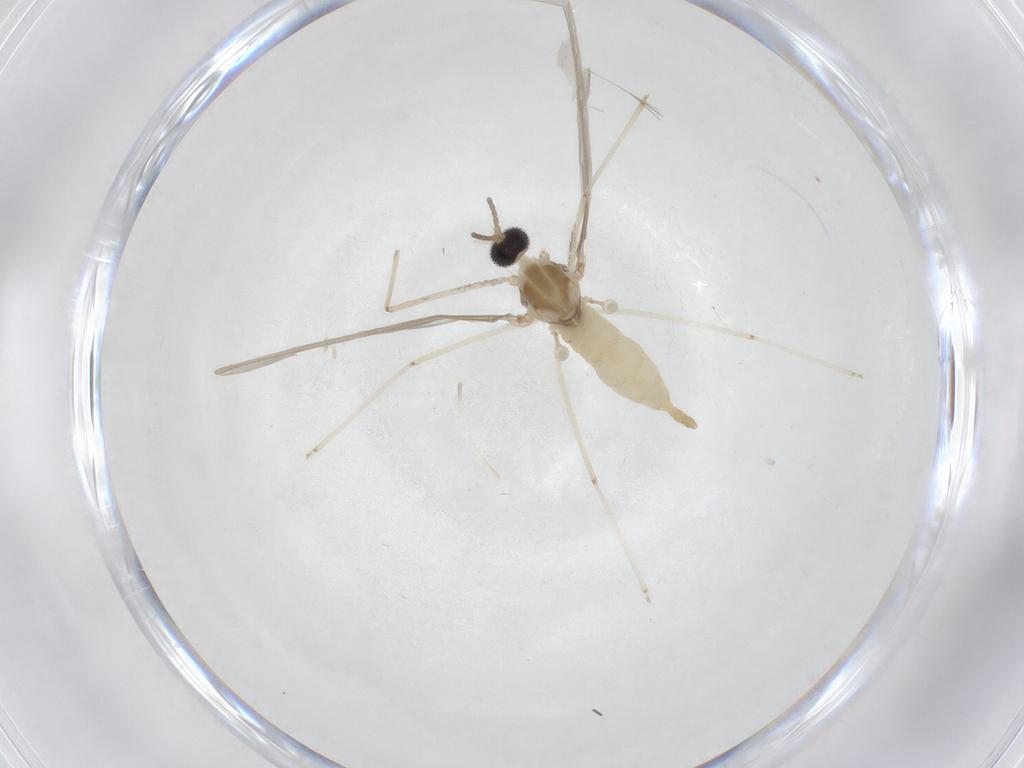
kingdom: Animalia
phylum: Arthropoda
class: Insecta
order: Diptera
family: Cecidomyiidae
